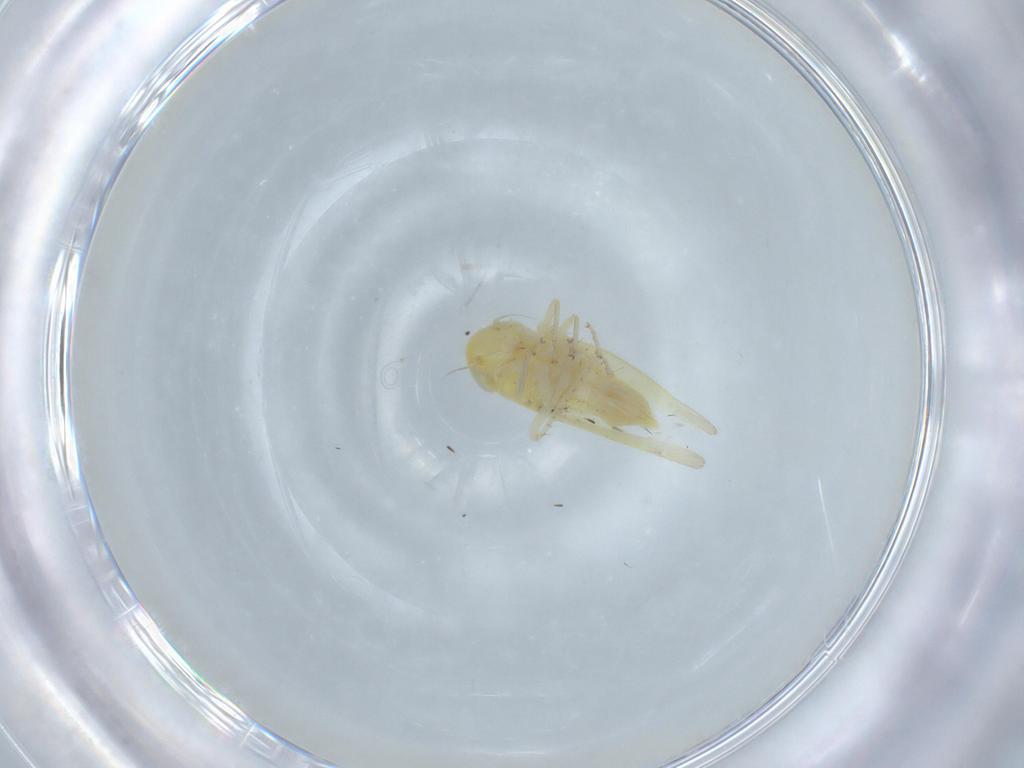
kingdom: Animalia
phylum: Arthropoda
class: Insecta
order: Hemiptera
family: Cicadellidae
